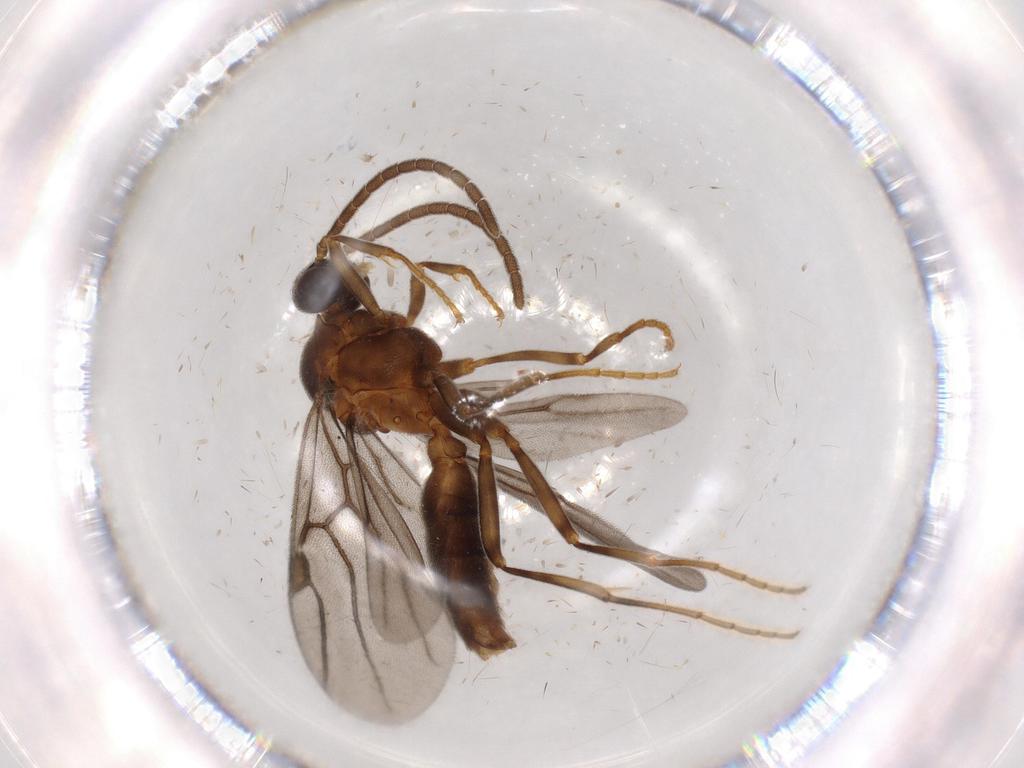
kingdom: Animalia
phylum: Arthropoda
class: Insecta
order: Hymenoptera
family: Formicidae
